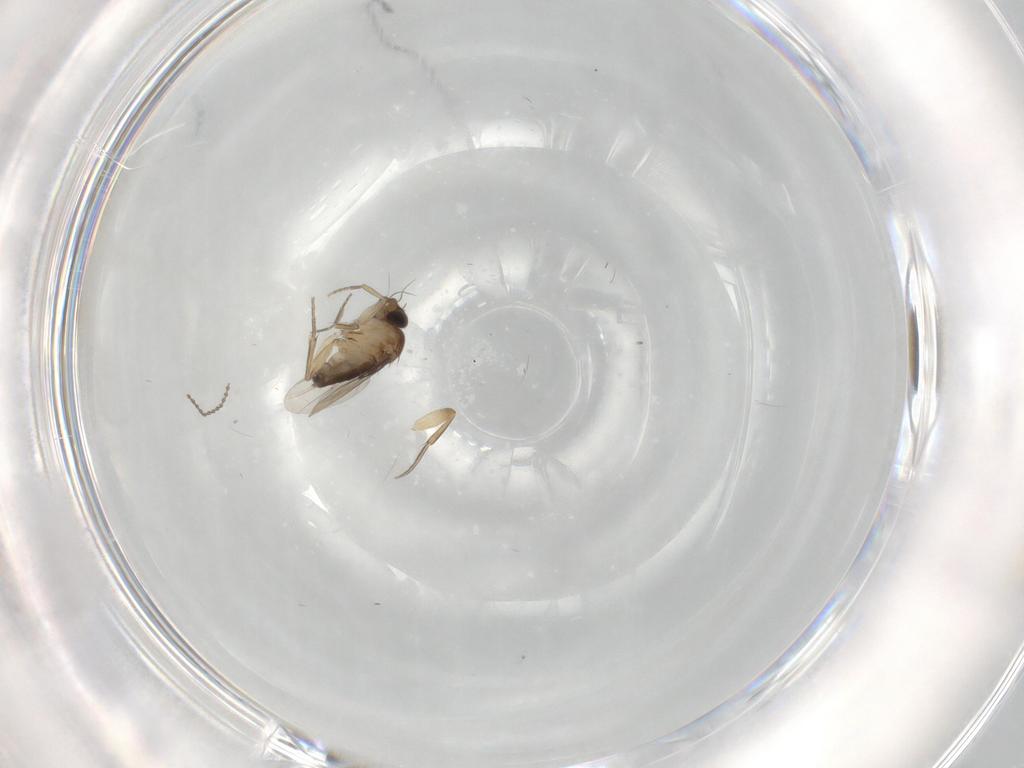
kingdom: Animalia
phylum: Arthropoda
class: Insecta
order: Diptera
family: Phoridae
